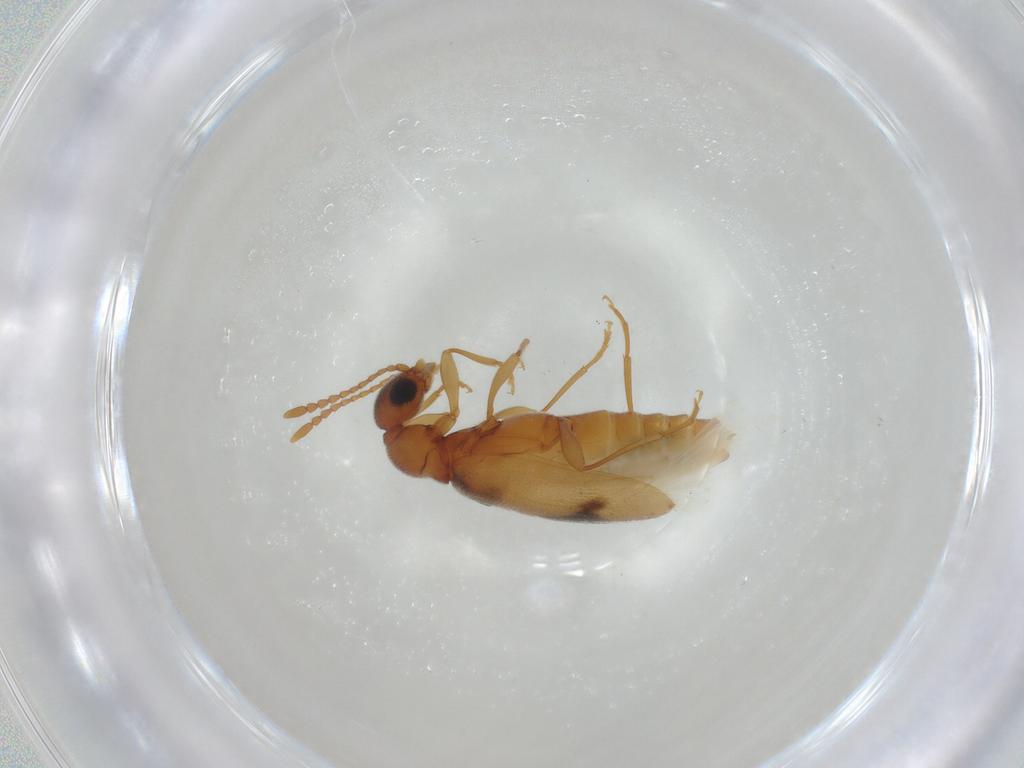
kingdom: Animalia
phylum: Arthropoda
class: Insecta
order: Coleoptera
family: Anthicidae
